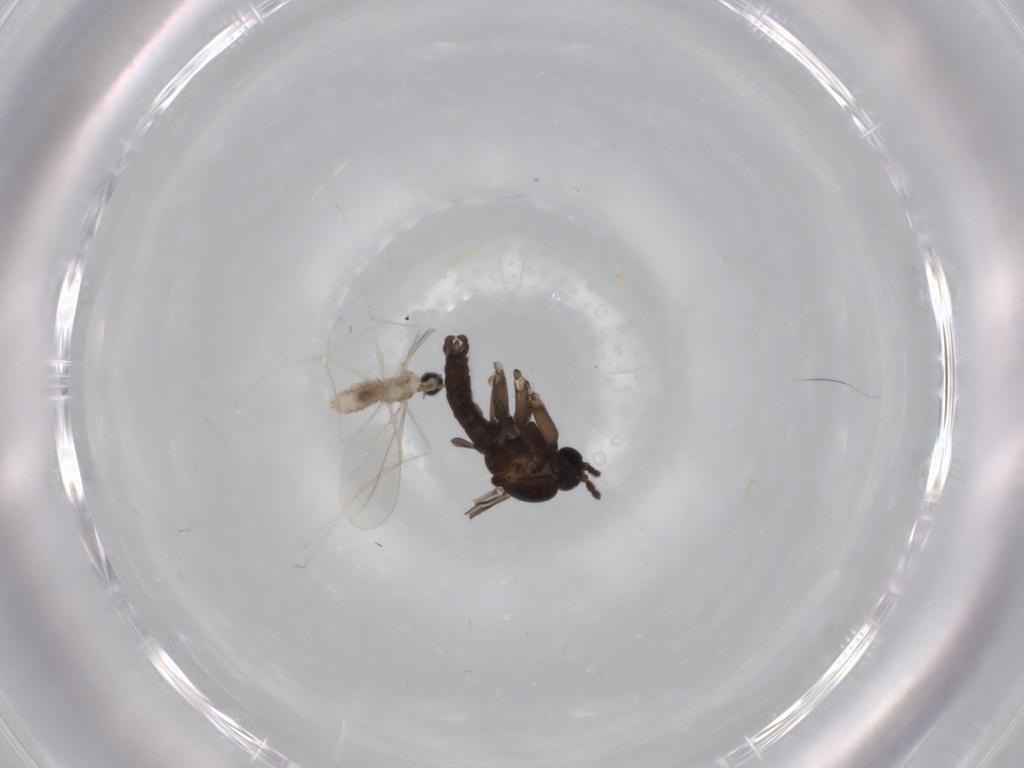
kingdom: Animalia
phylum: Arthropoda
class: Insecta
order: Diptera
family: Sciaridae
